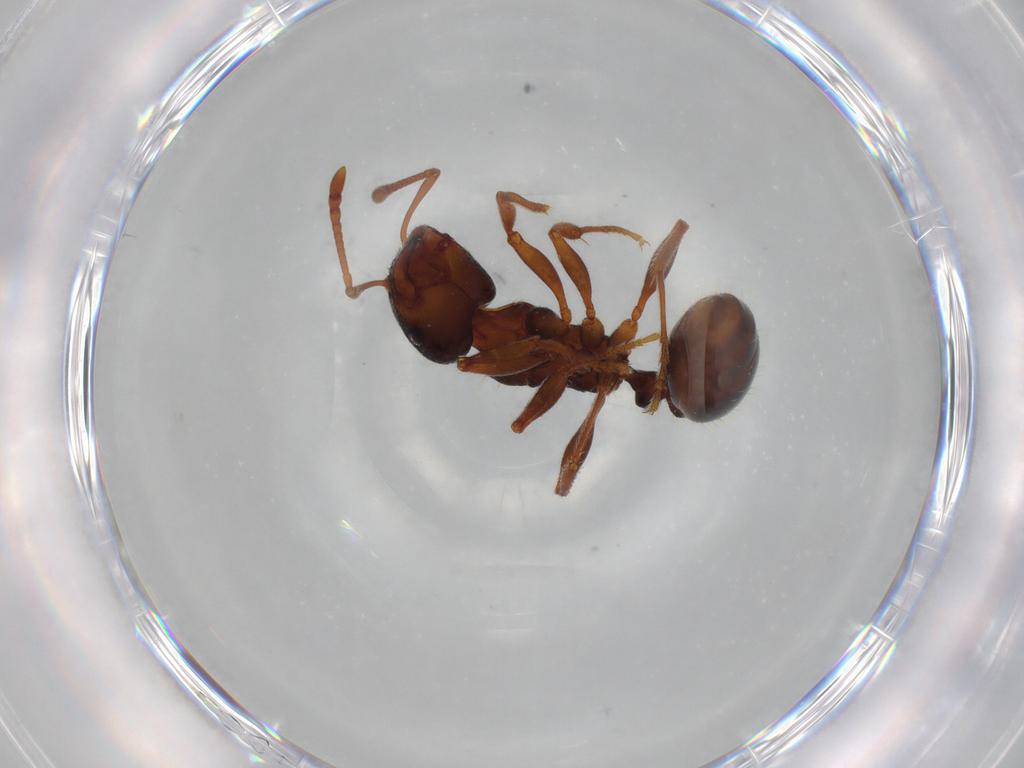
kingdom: Animalia
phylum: Arthropoda
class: Insecta
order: Hymenoptera
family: Formicidae
